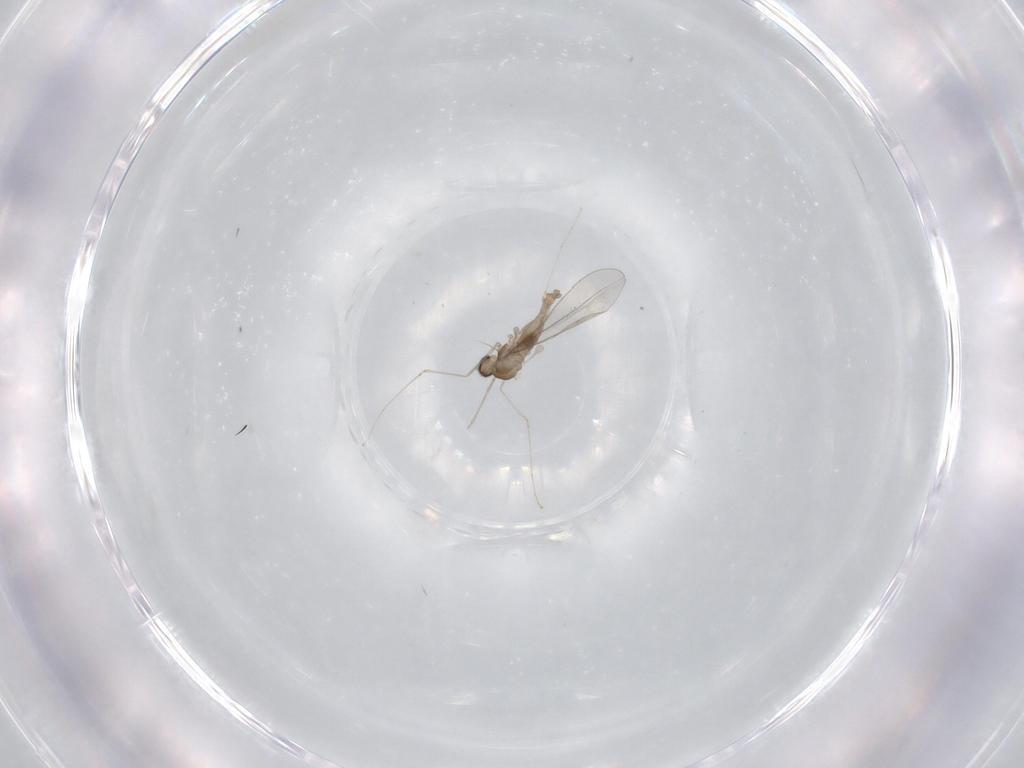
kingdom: Animalia
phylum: Arthropoda
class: Insecta
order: Diptera
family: Cecidomyiidae
